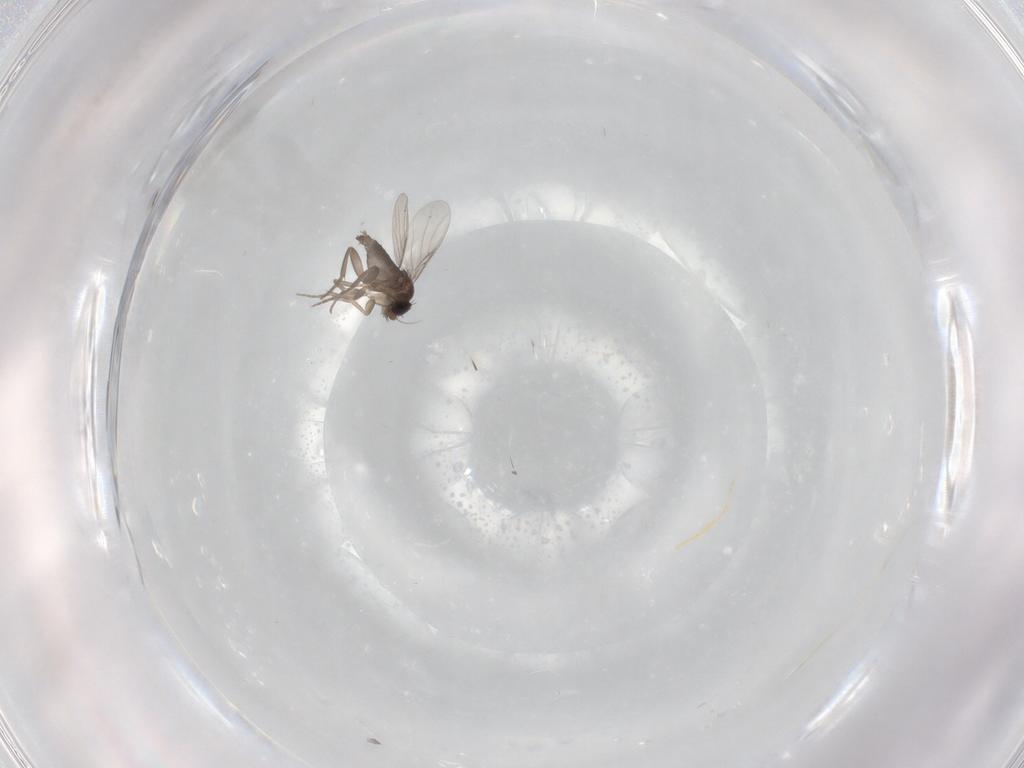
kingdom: Animalia
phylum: Arthropoda
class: Insecta
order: Diptera
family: Phoridae
